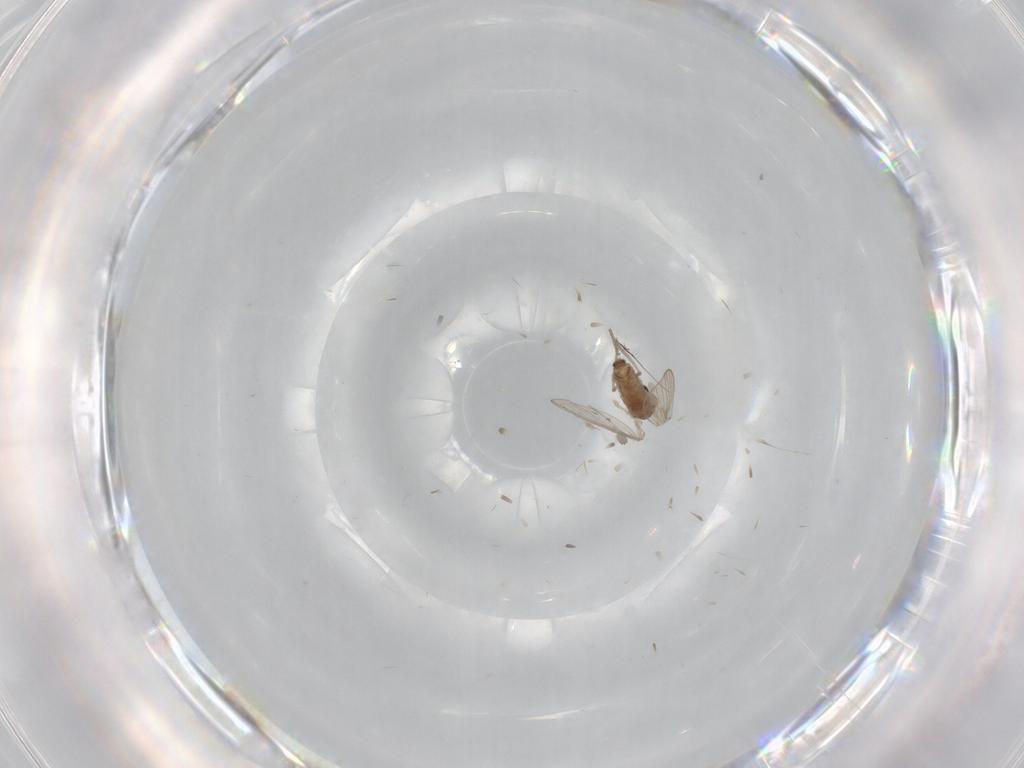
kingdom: Animalia
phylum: Arthropoda
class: Insecta
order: Diptera
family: Psychodidae
